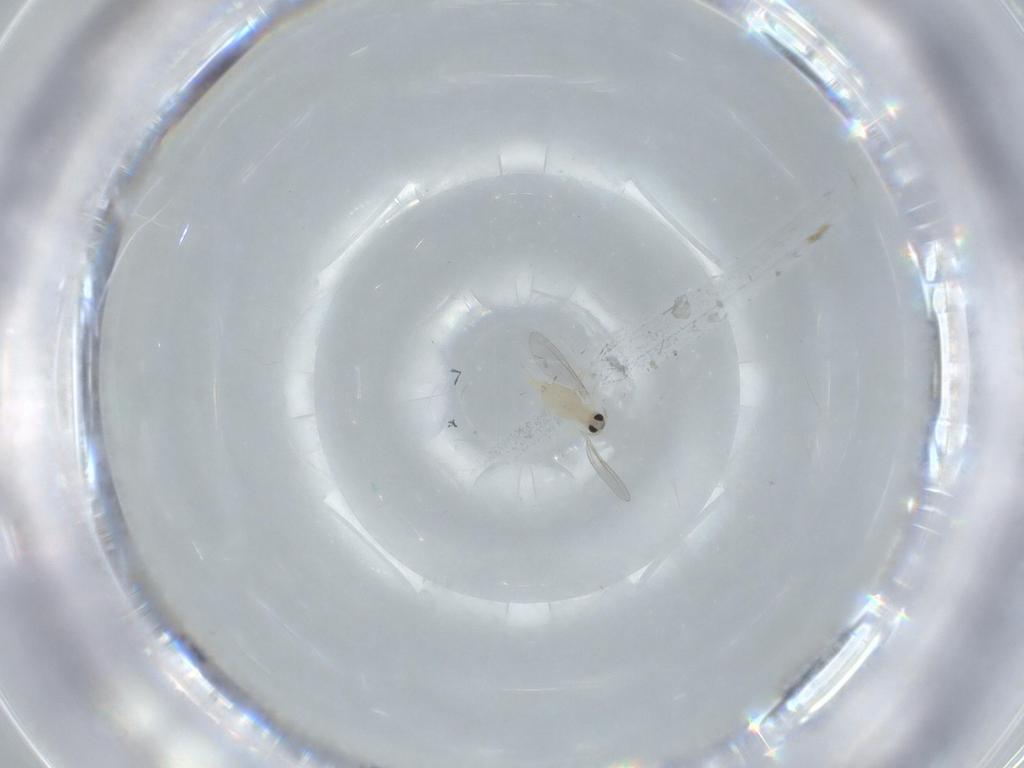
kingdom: Animalia
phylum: Arthropoda
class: Insecta
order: Diptera
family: Cecidomyiidae
